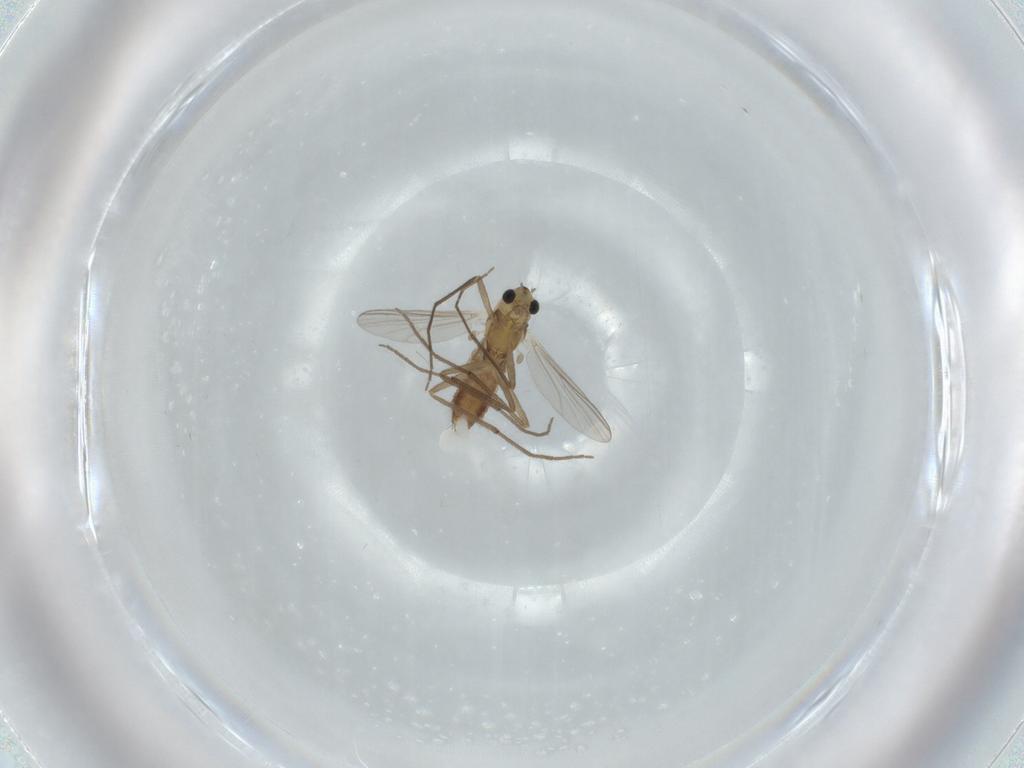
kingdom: Animalia
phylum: Arthropoda
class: Insecta
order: Diptera
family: Chironomidae
